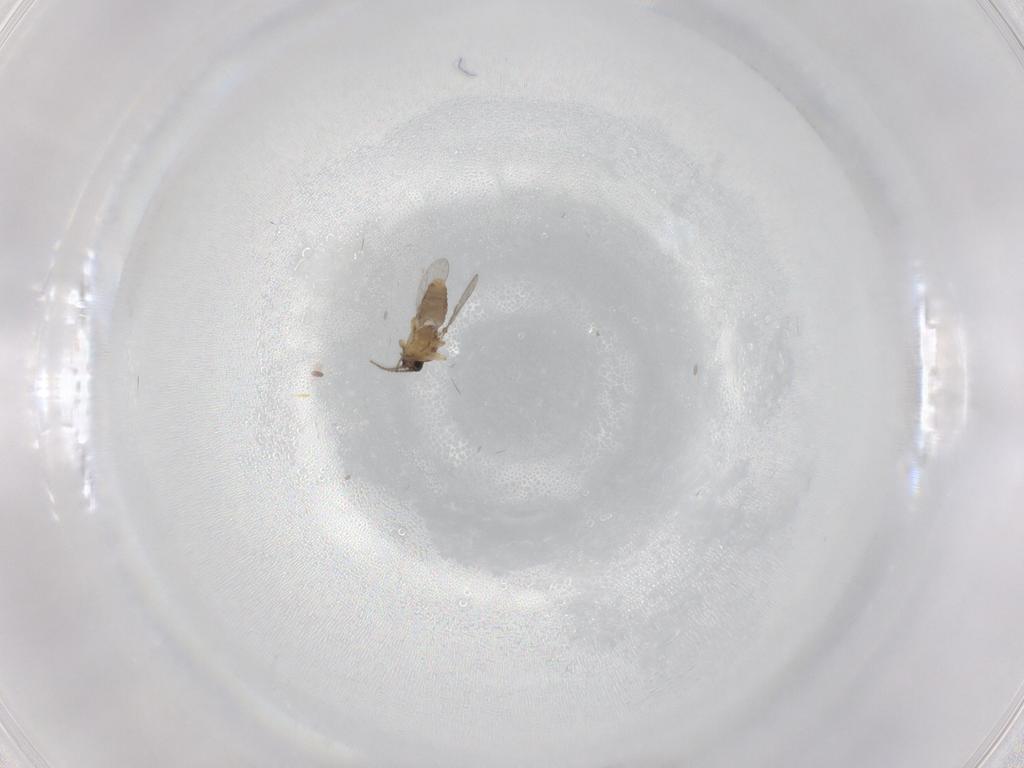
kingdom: Animalia
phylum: Arthropoda
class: Insecta
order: Diptera
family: Ceratopogonidae
